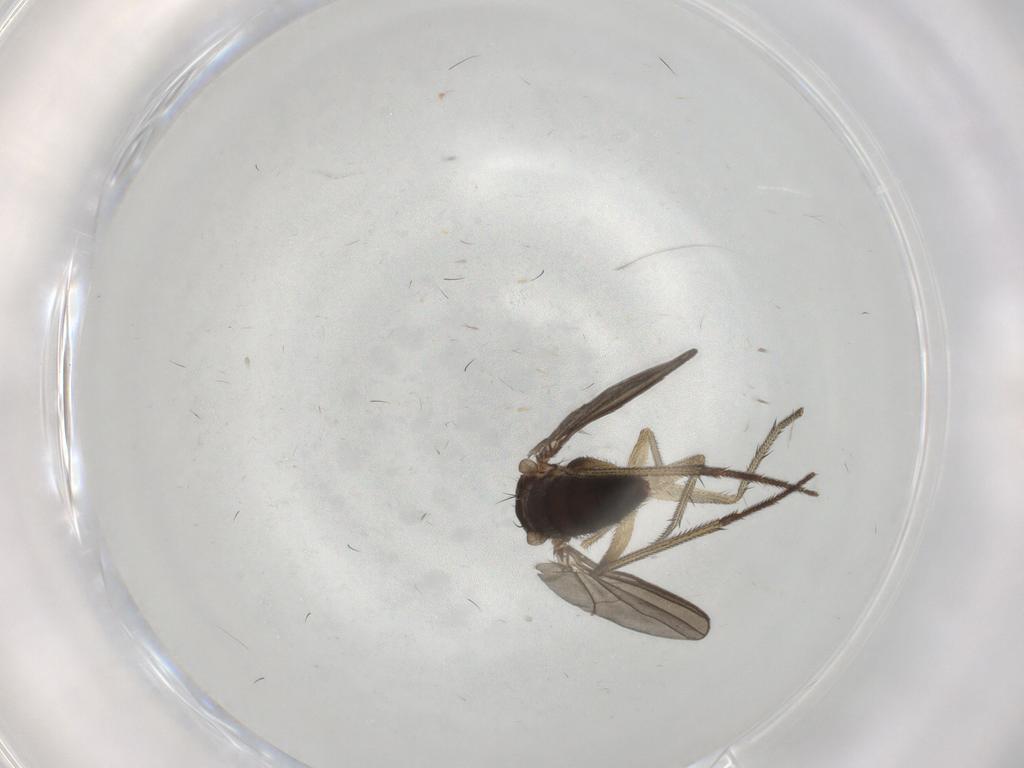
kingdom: Animalia
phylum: Arthropoda
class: Insecta
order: Diptera
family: Dolichopodidae
